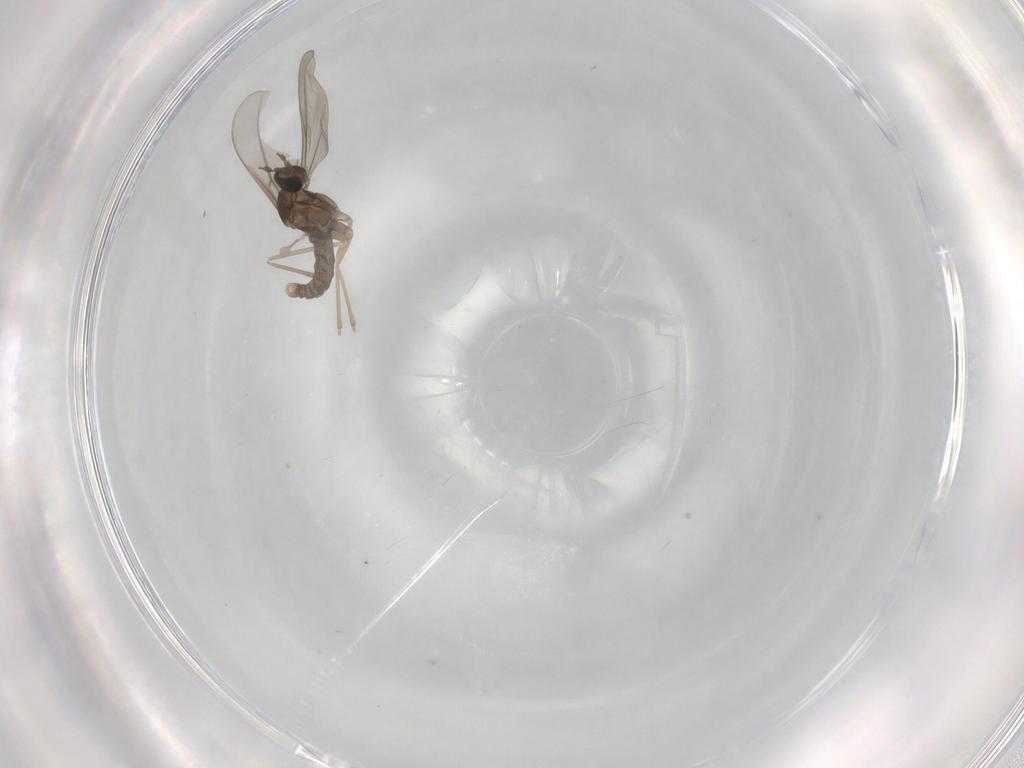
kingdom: Animalia
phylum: Arthropoda
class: Insecta
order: Diptera
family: Cecidomyiidae
